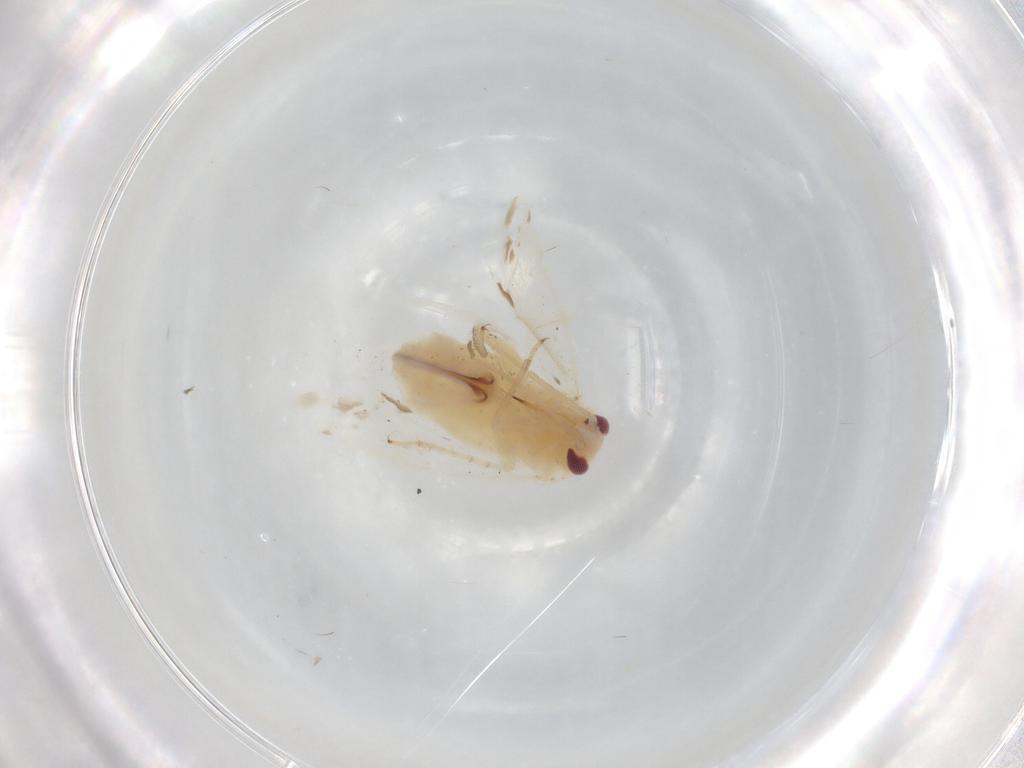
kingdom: Animalia
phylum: Arthropoda
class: Insecta
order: Hemiptera
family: Miridae
